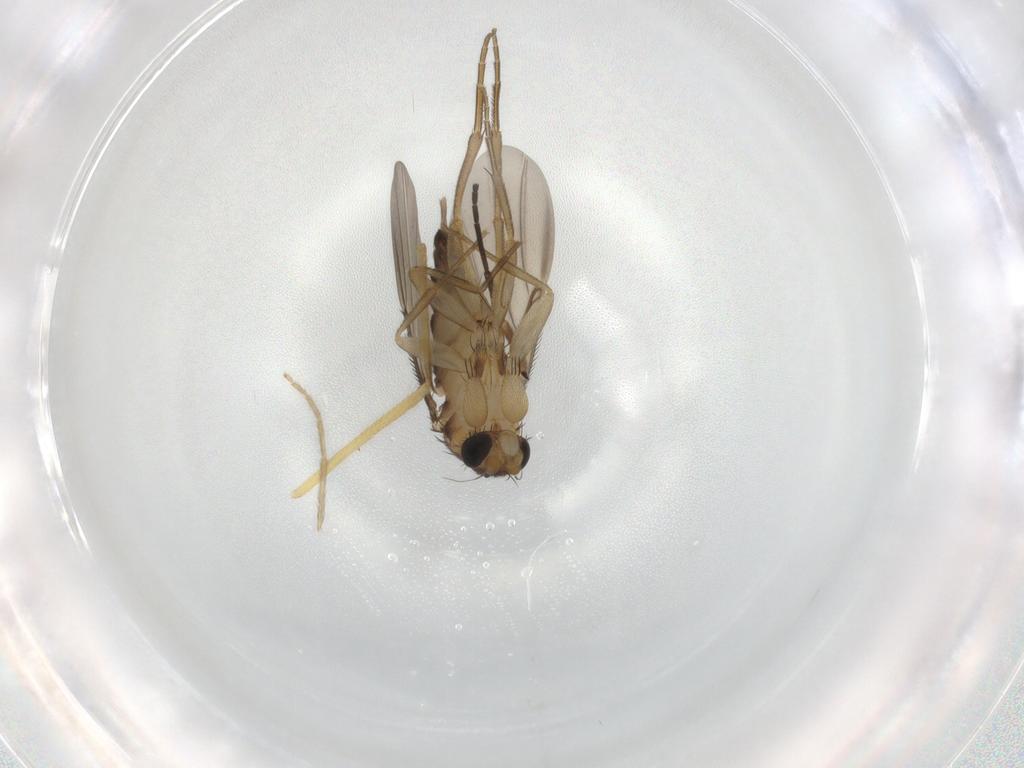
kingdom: Animalia
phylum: Arthropoda
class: Insecta
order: Diptera
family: Phoridae
